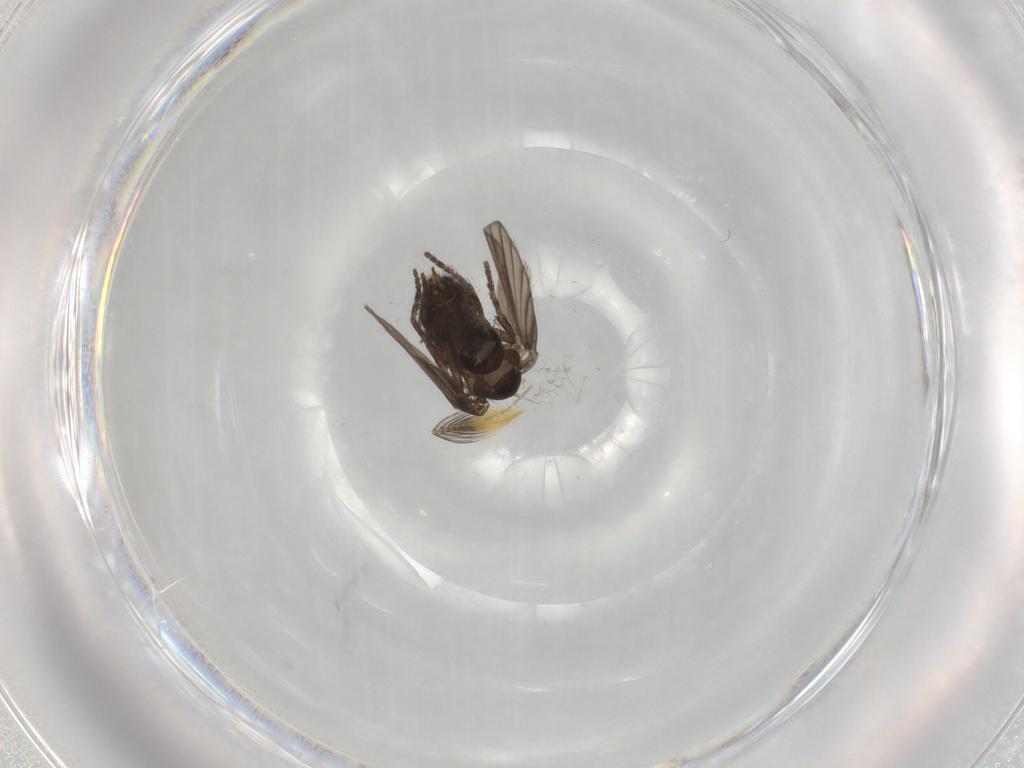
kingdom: Animalia
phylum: Arthropoda
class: Insecta
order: Diptera
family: Psychodidae
